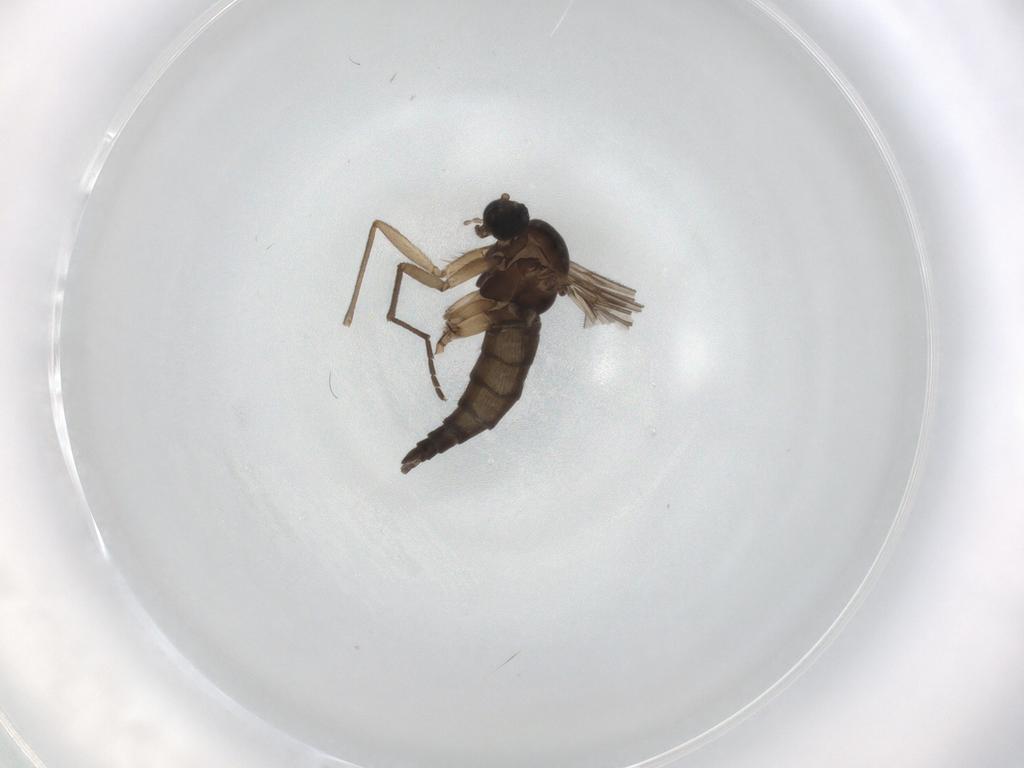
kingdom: Animalia
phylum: Arthropoda
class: Insecta
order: Diptera
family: Sciaridae
